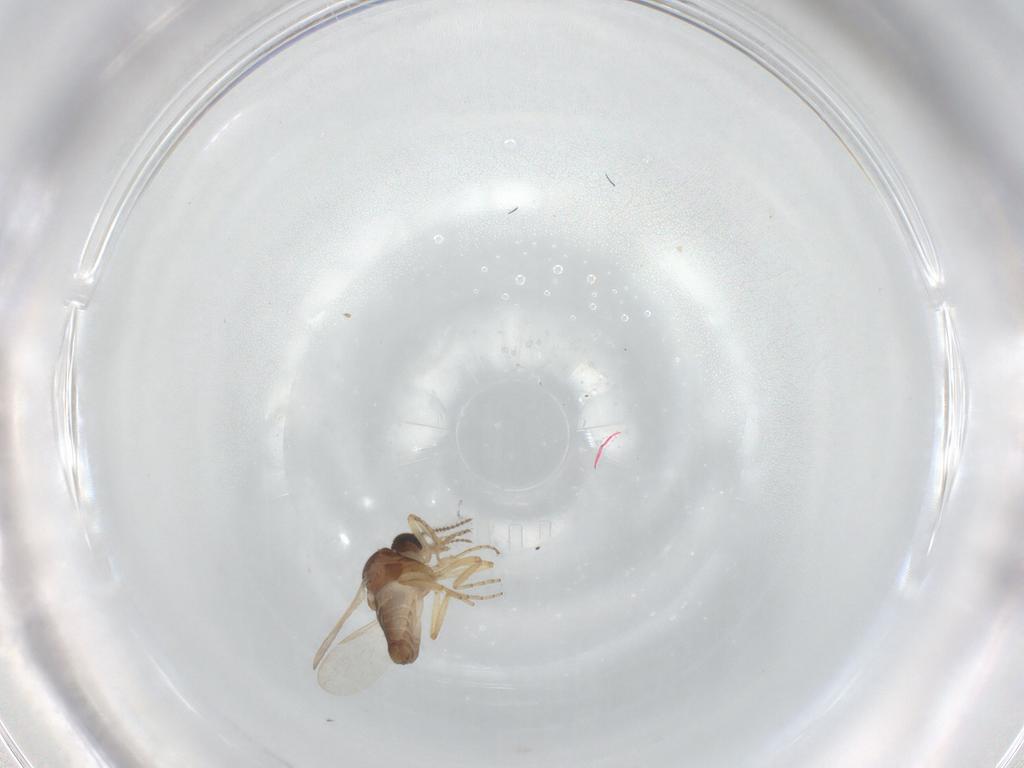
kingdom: Animalia
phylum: Arthropoda
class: Insecta
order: Diptera
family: Ceratopogonidae
